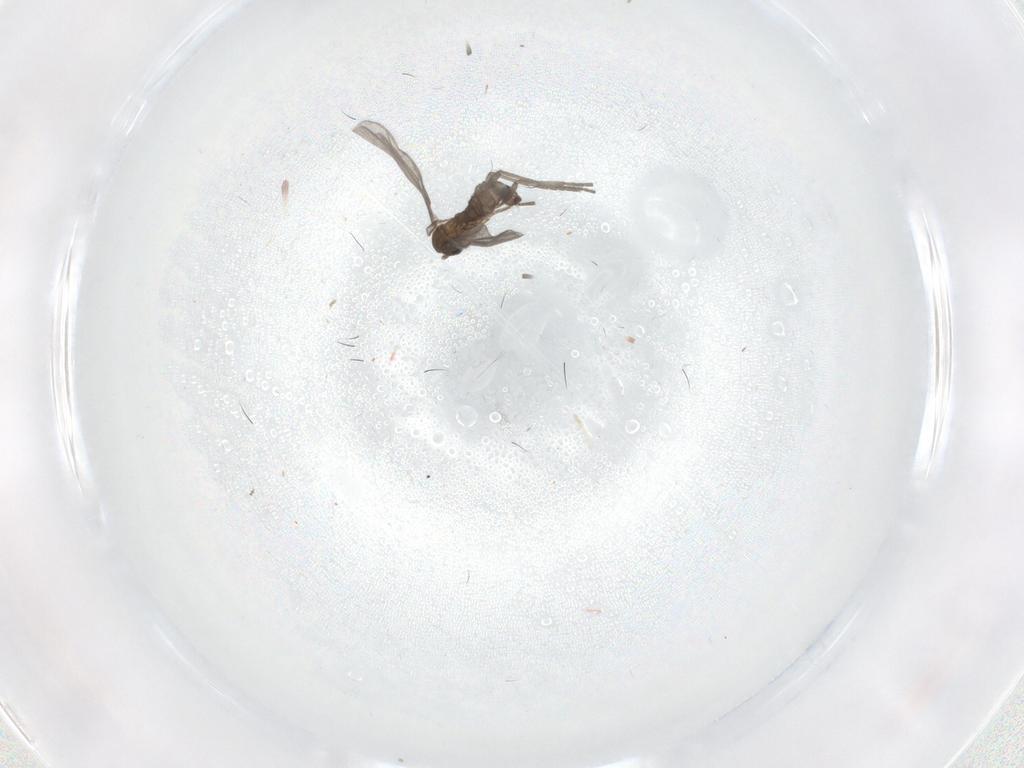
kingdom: Animalia
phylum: Arthropoda
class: Insecta
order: Diptera
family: Sciaridae
